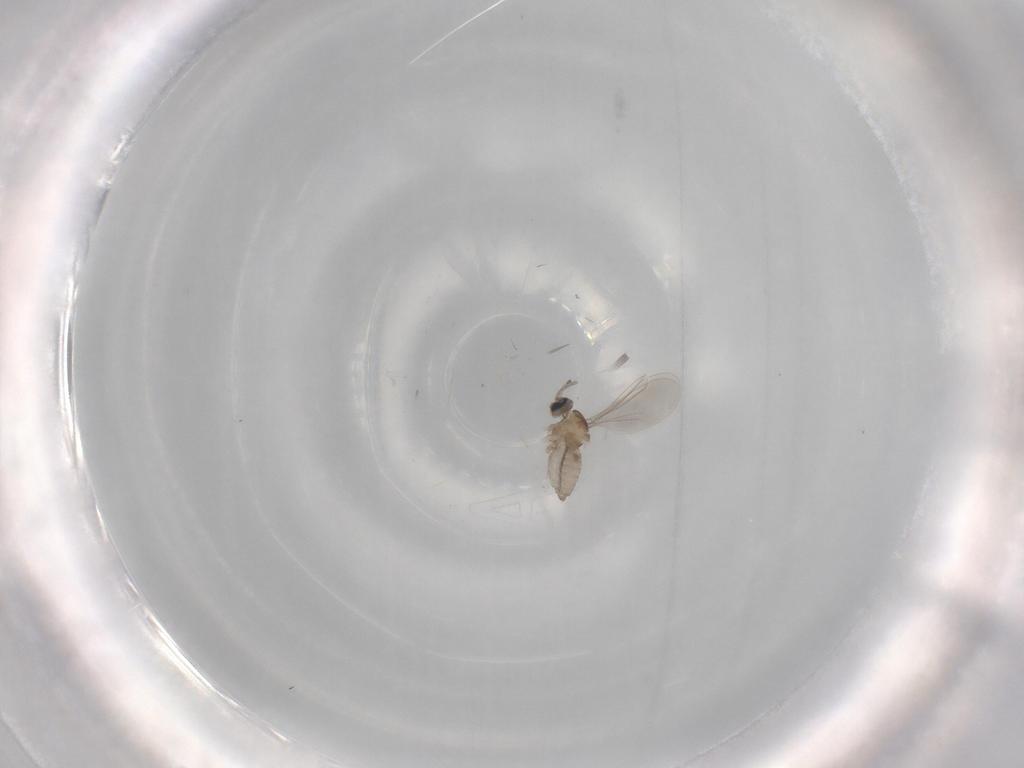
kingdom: Animalia
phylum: Arthropoda
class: Insecta
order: Diptera
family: Cecidomyiidae
